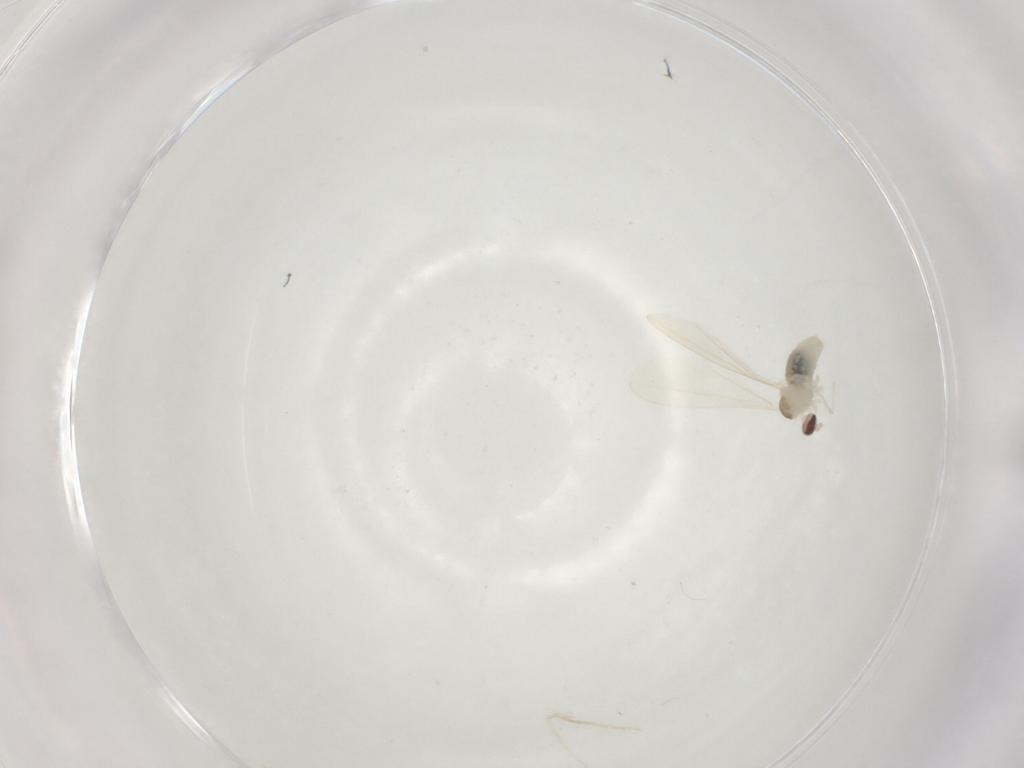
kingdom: Animalia
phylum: Arthropoda
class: Insecta
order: Diptera
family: Cecidomyiidae
